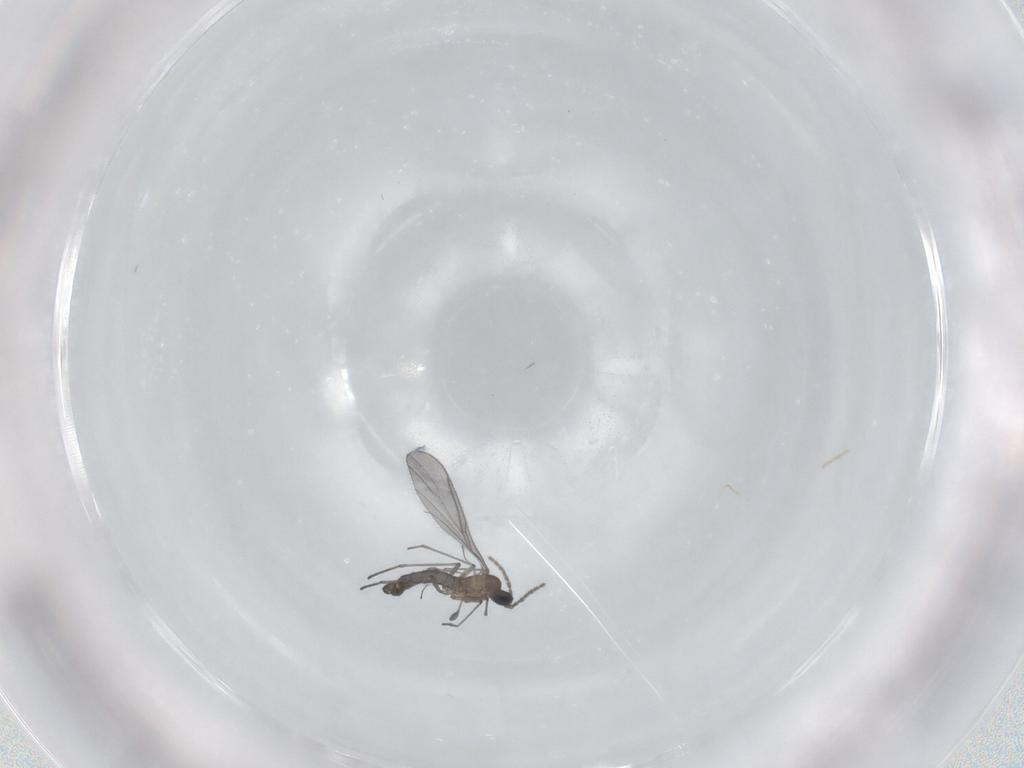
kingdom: Animalia
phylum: Arthropoda
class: Insecta
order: Diptera
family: Sciaridae
